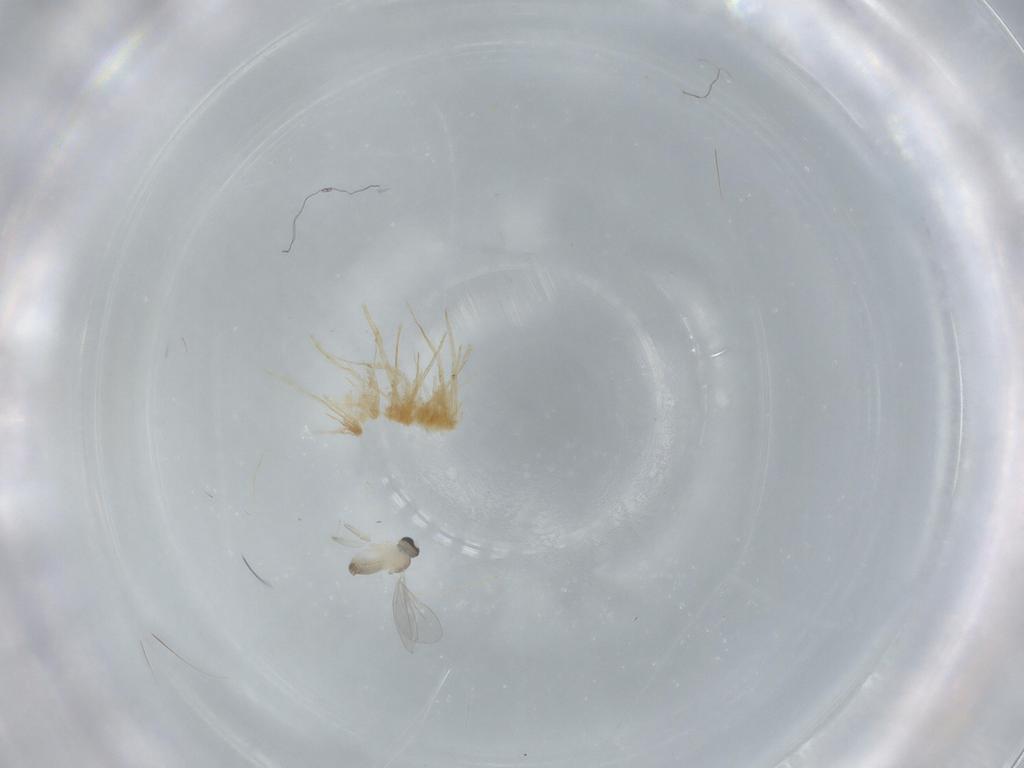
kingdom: Animalia
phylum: Arthropoda
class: Insecta
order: Diptera
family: Cecidomyiidae
